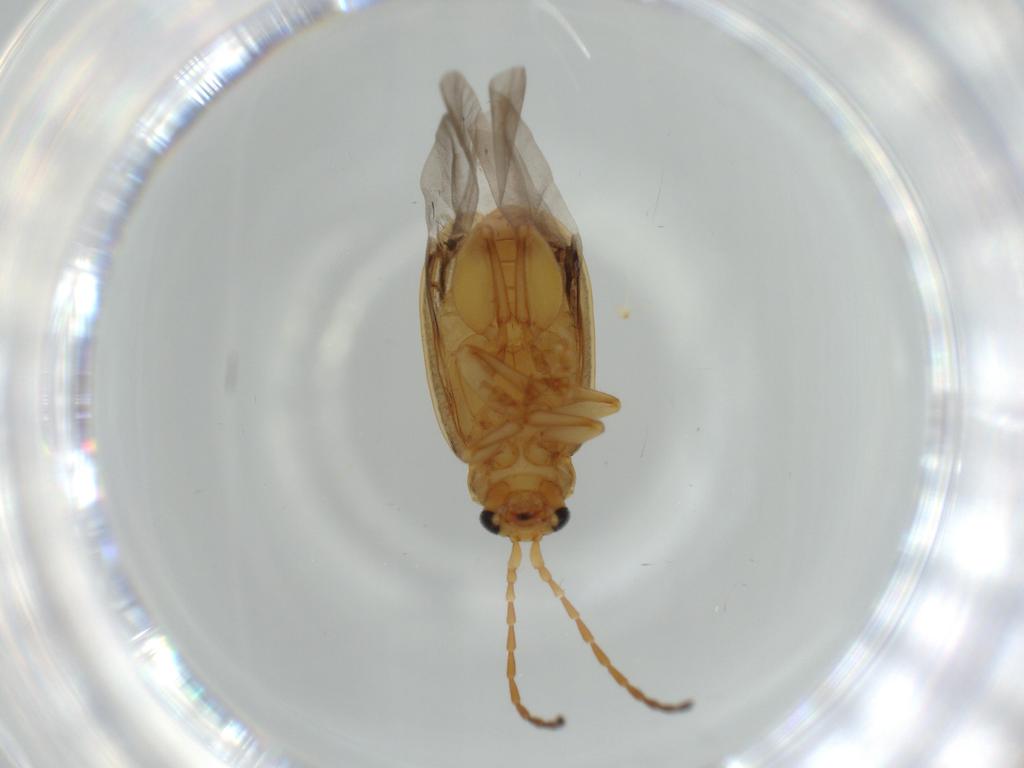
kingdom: Animalia
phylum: Arthropoda
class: Insecta
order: Coleoptera
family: Chrysomelidae
